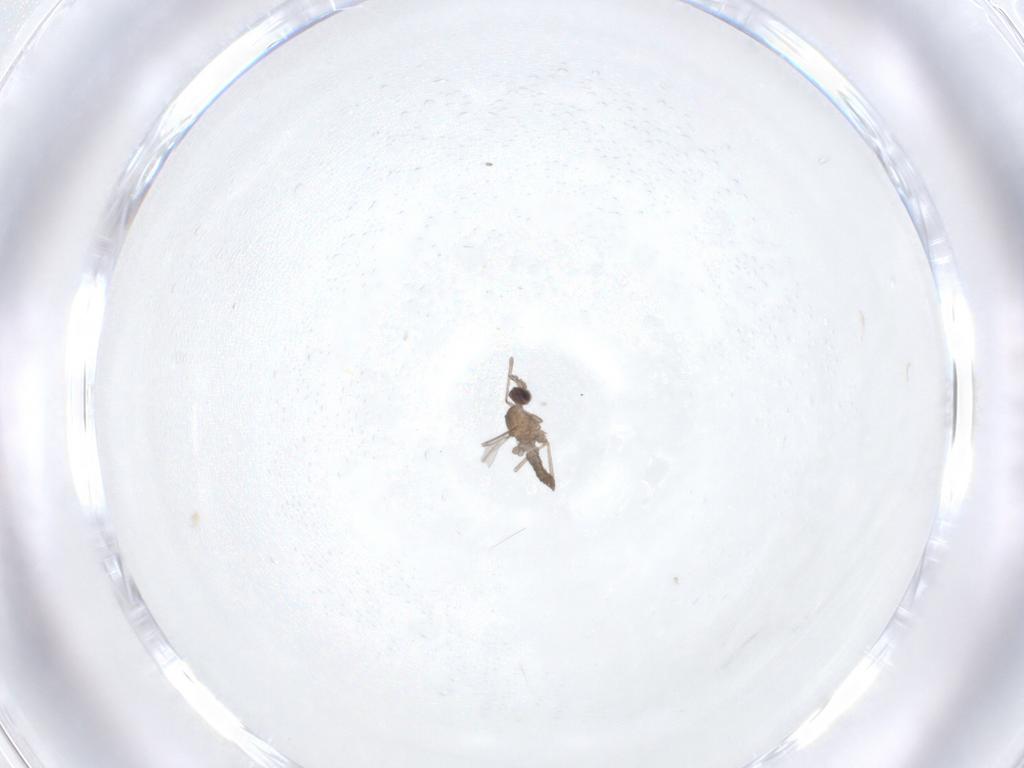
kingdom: Animalia
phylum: Arthropoda
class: Insecta
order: Diptera
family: Cecidomyiidae
